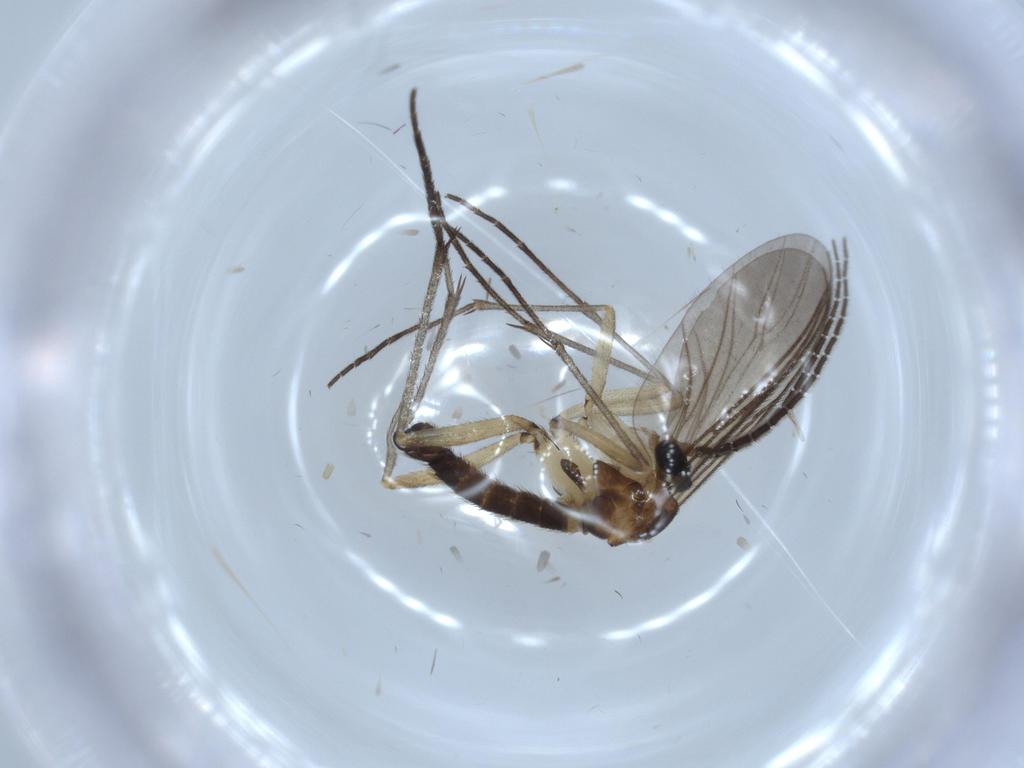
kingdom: Animalia
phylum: Arthropoda
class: Insecta
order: Diptera
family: Sciaridae
